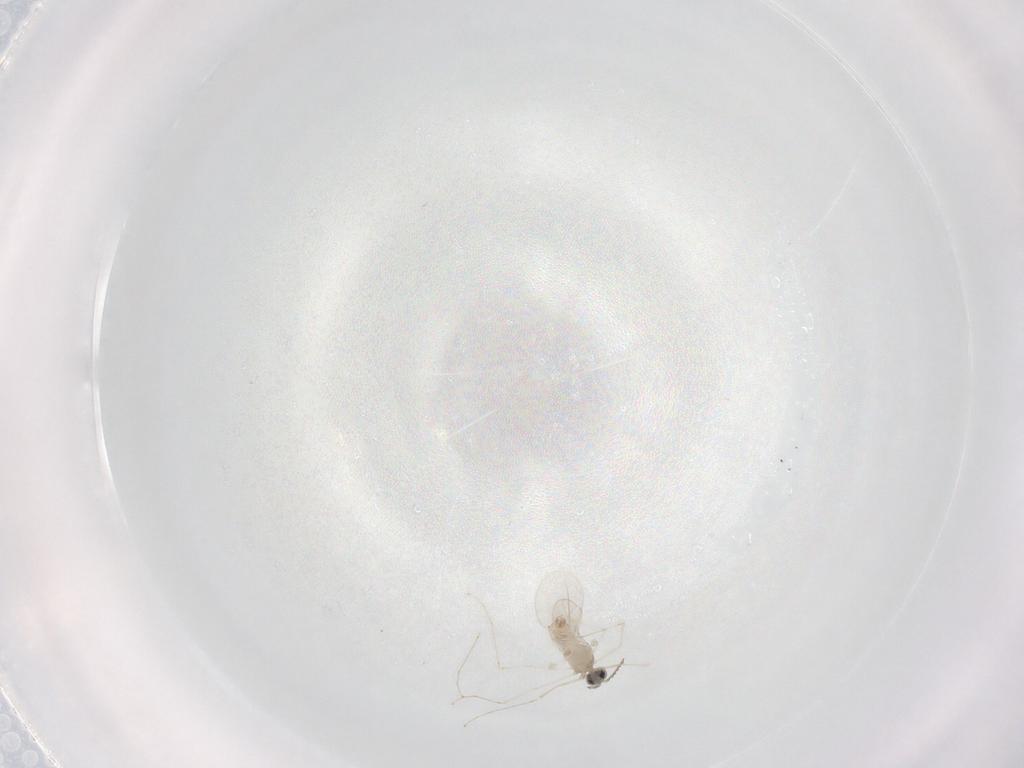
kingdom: Animalia
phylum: Arthropoda
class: Insecta
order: Diptera
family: Cecidomyiidae
